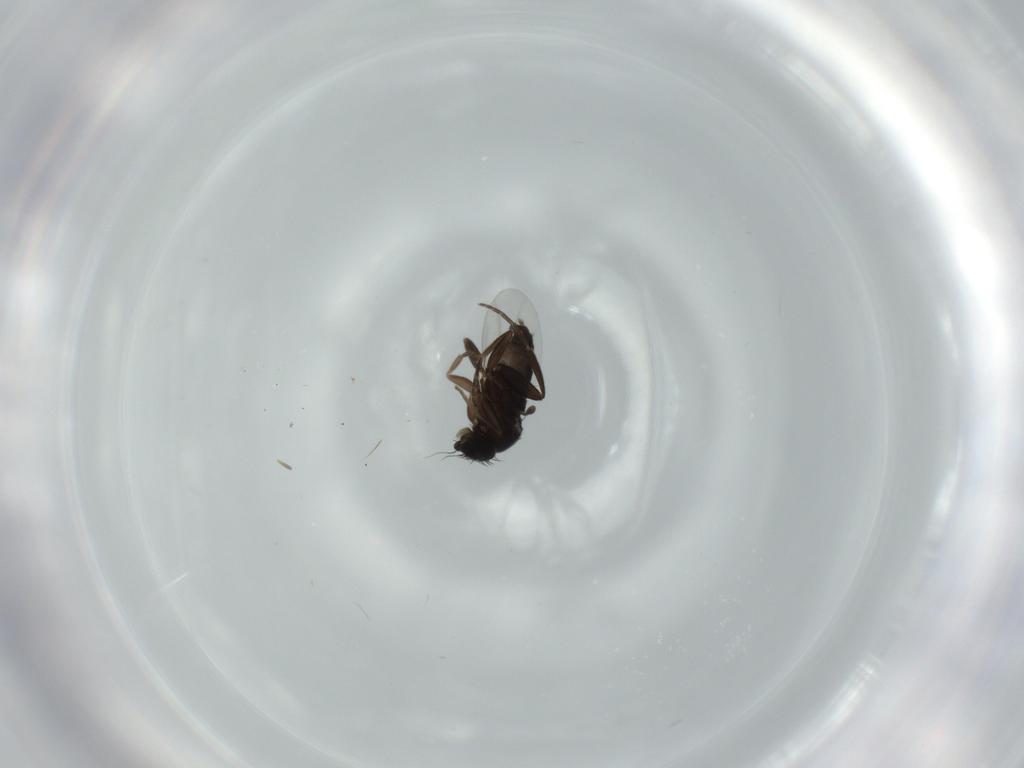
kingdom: Animalia
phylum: Arthropoda
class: Insecta
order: Diptera
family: Phoridae
